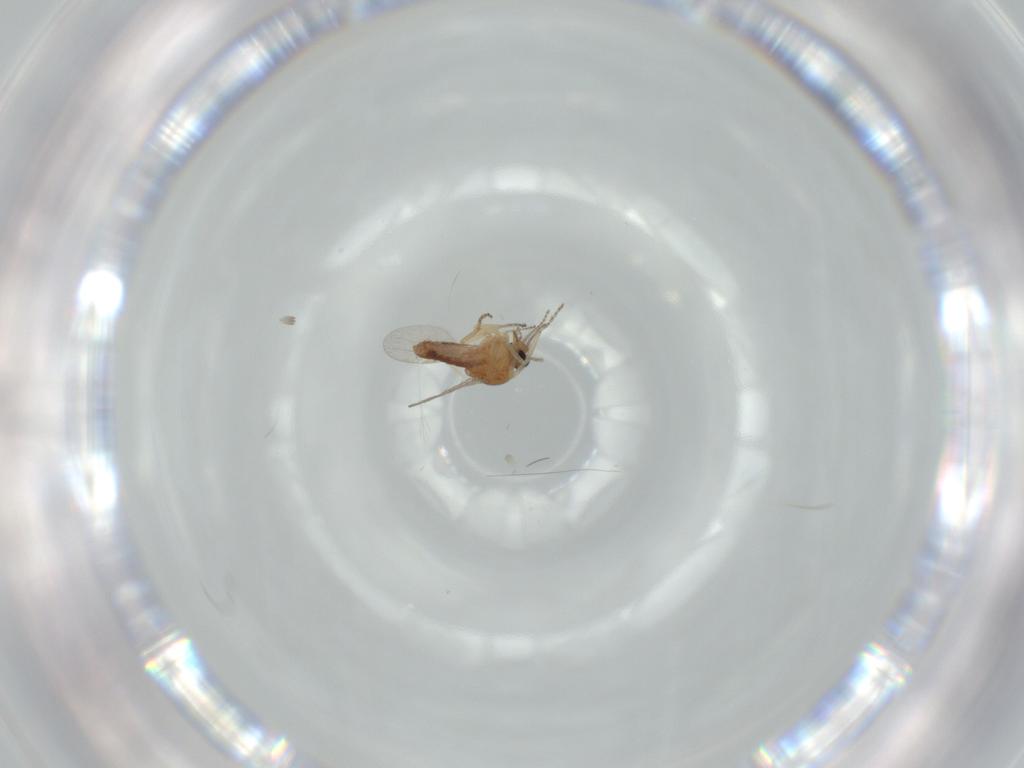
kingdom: Animalia
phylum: Arthropoda
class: Insecta
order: Diptera
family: Ceratopogonidae
